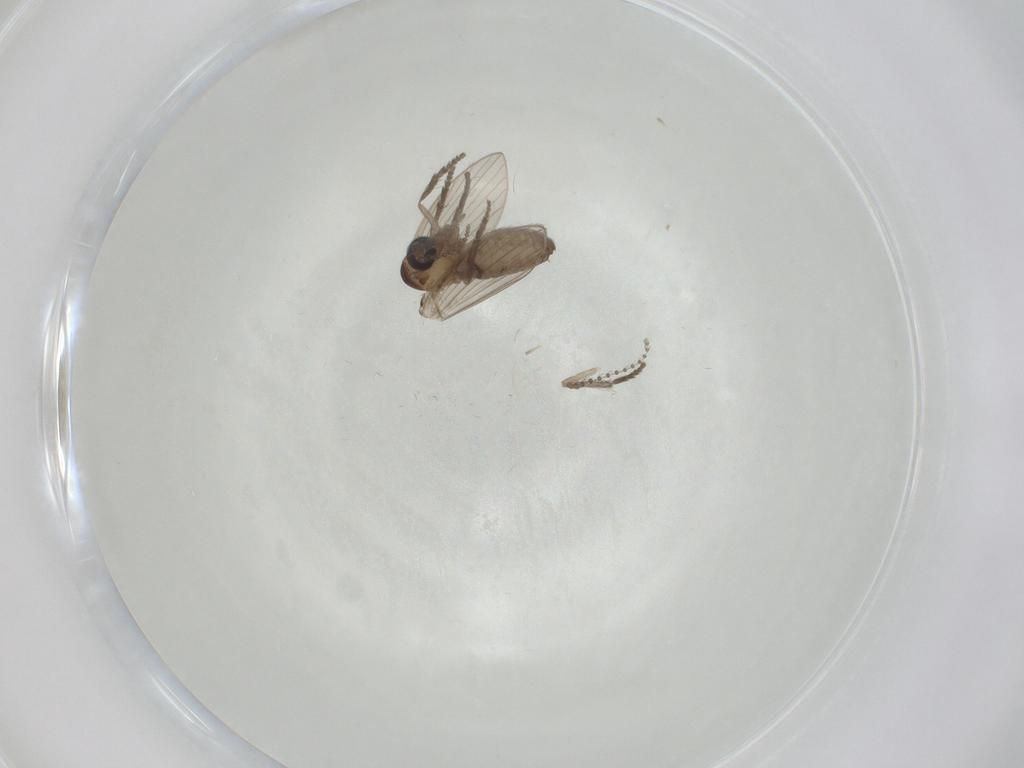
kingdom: Animalia
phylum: Arthropoda
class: Insecta
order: Diptera
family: Psychodidae
